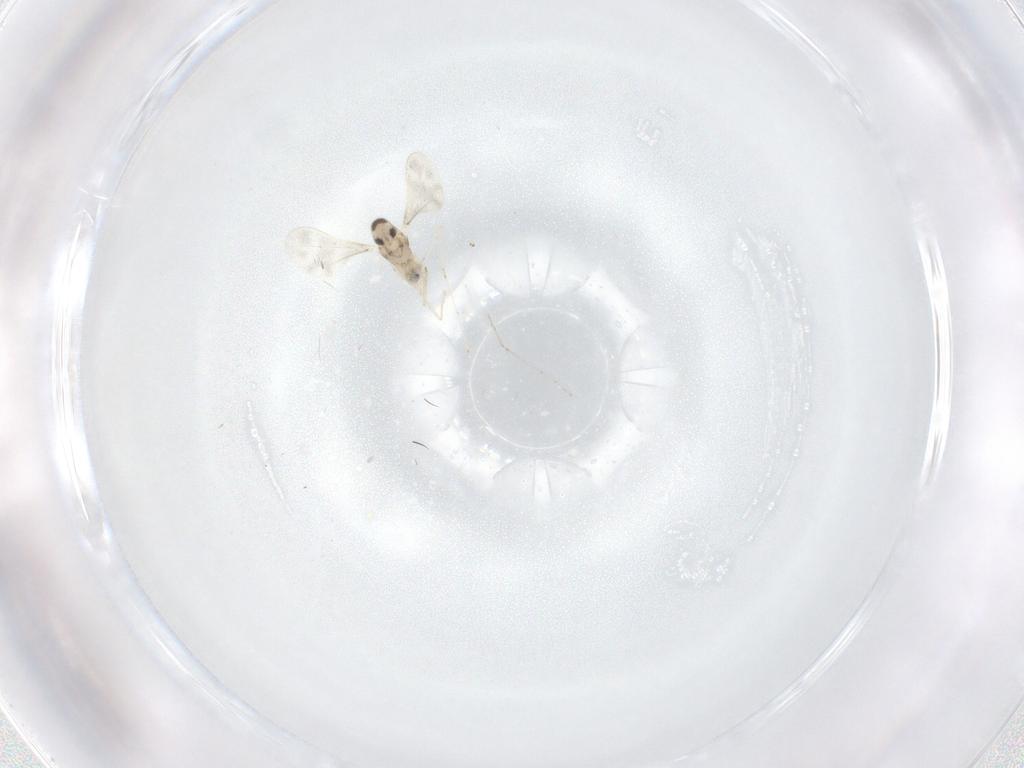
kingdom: Animalia
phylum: Arthropoda
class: Insecta
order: Diptera
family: Cecidomyiidae
